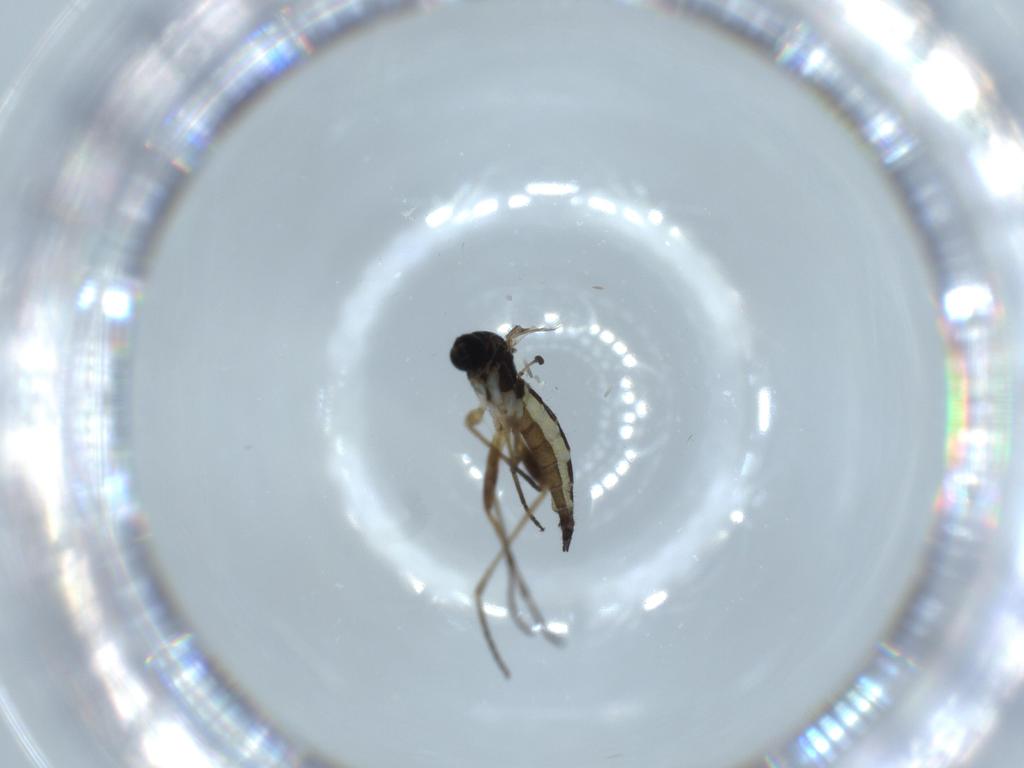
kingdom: Animalia
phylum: Arthropoda
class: Insecta
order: Diptera
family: Sciaridae
